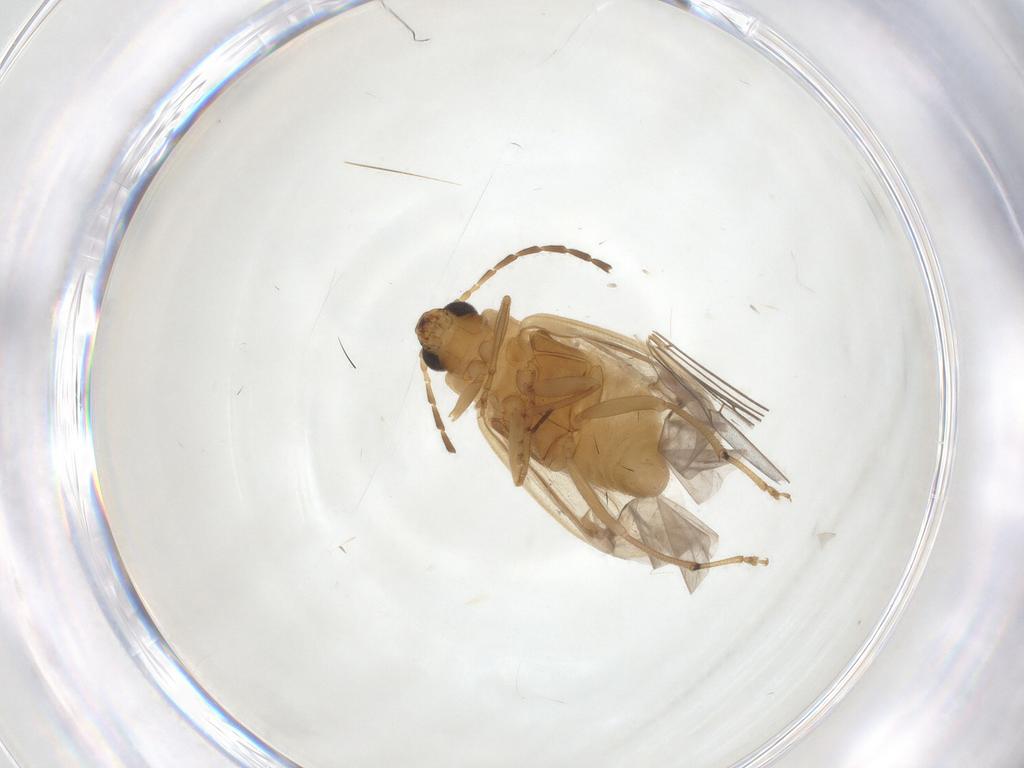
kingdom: Animalia
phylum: Arthropoda
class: Insecta
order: Coleoptera
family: Chrysomelidae
